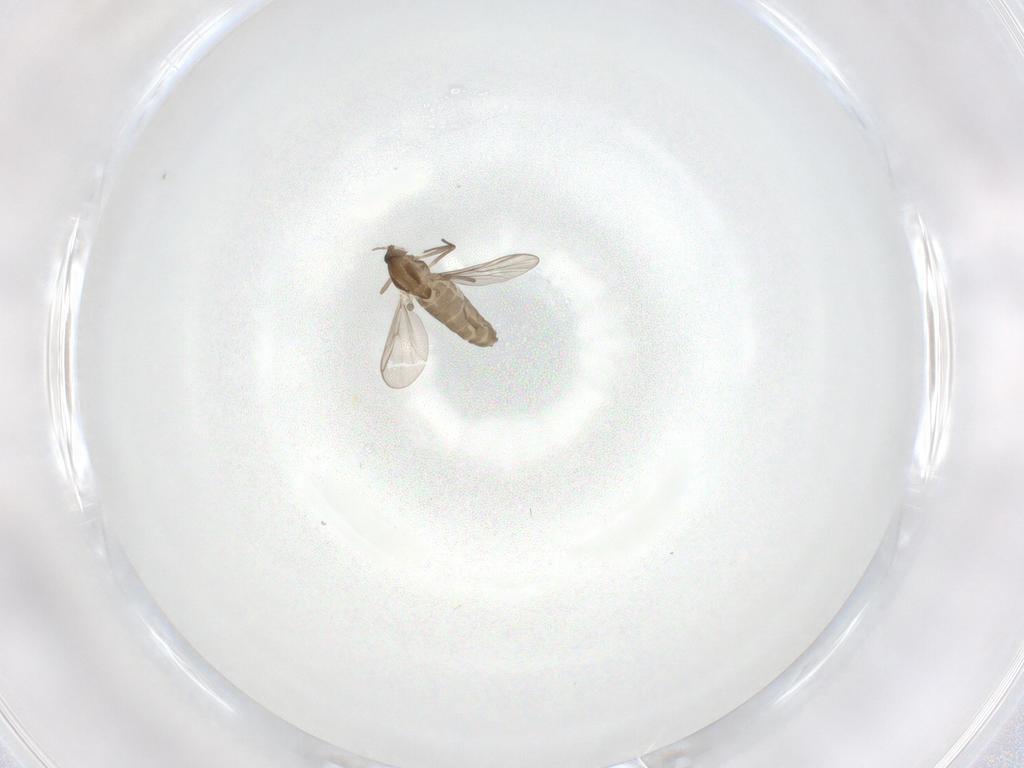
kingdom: Animalia
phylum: Arthropoda
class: Insecta
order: Diptera
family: Chironomidae
